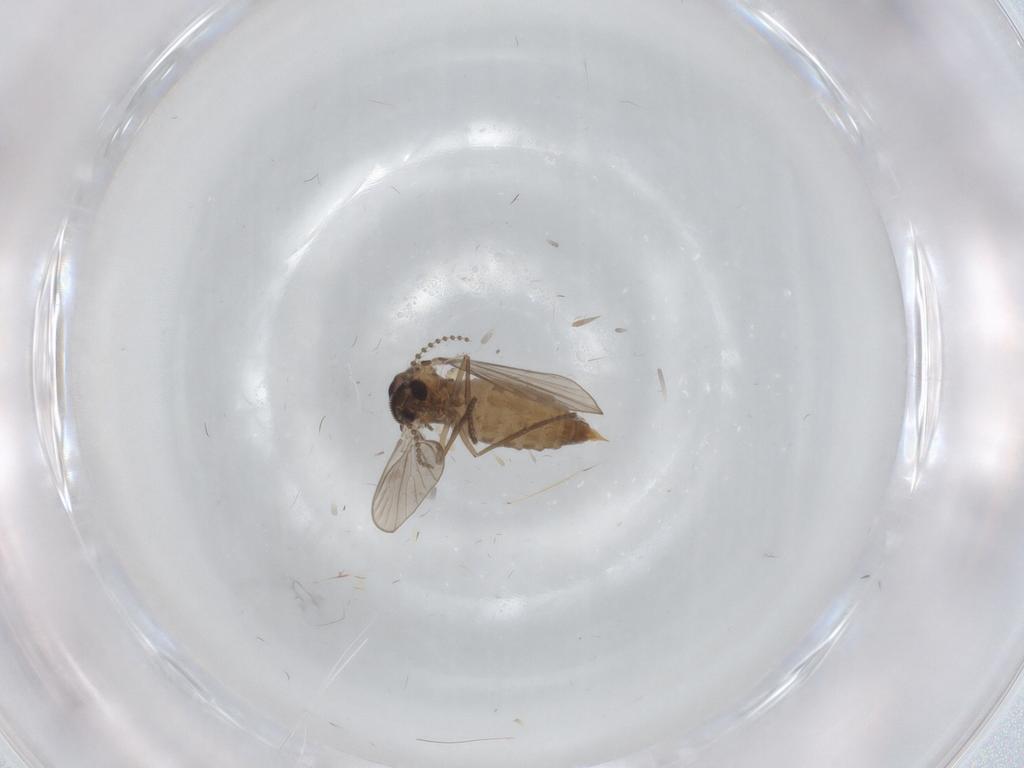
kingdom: Animalia
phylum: Arthropoda
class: Insecta
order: Diptera
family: Psychodidae
